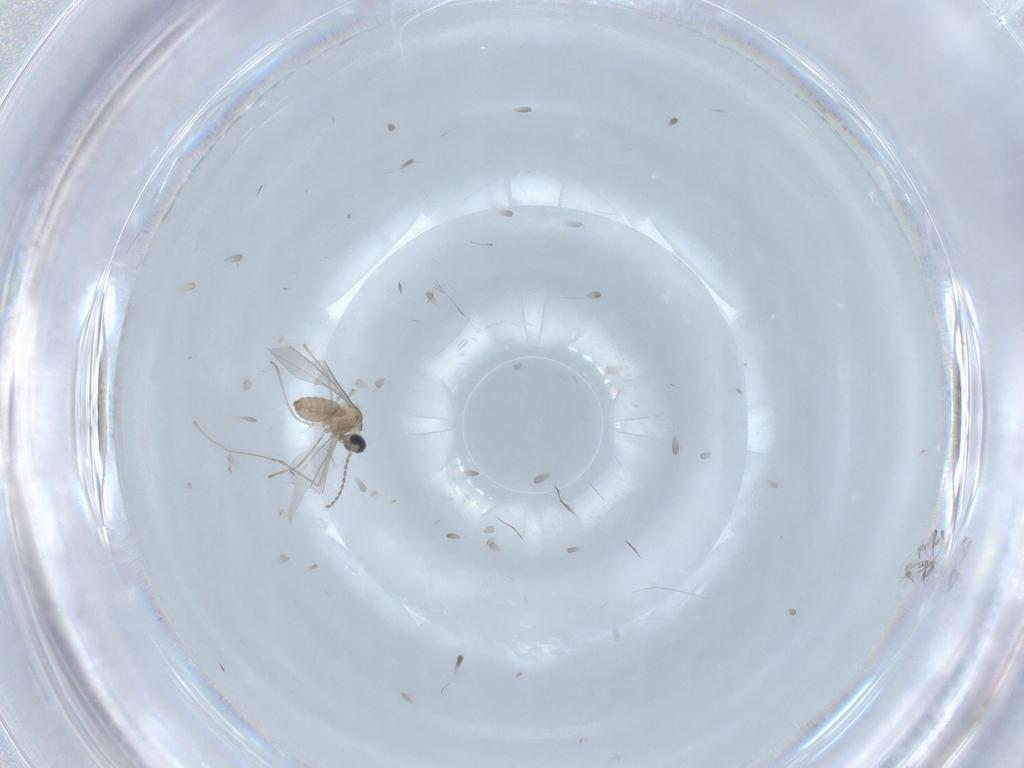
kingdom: Animalia
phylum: Arthropoda
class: Insecta
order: Diptera
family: Cecidomyiidae
